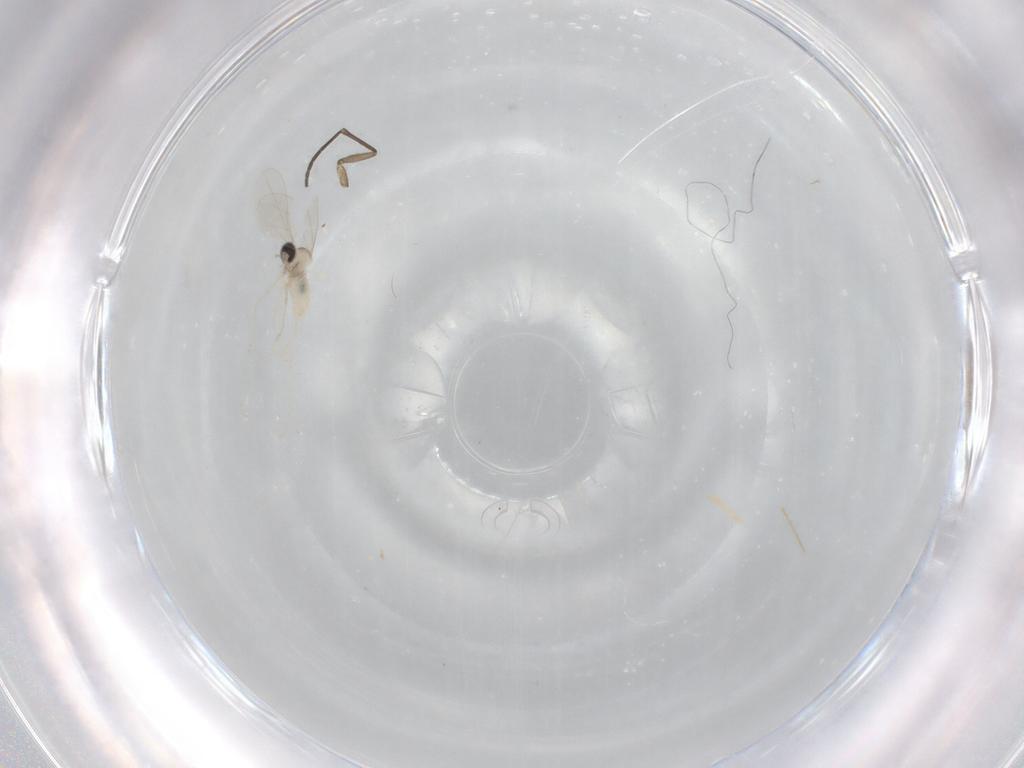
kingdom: Animalia
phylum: Arthropoda
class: Insecta
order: Diptera
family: Sciaridae
